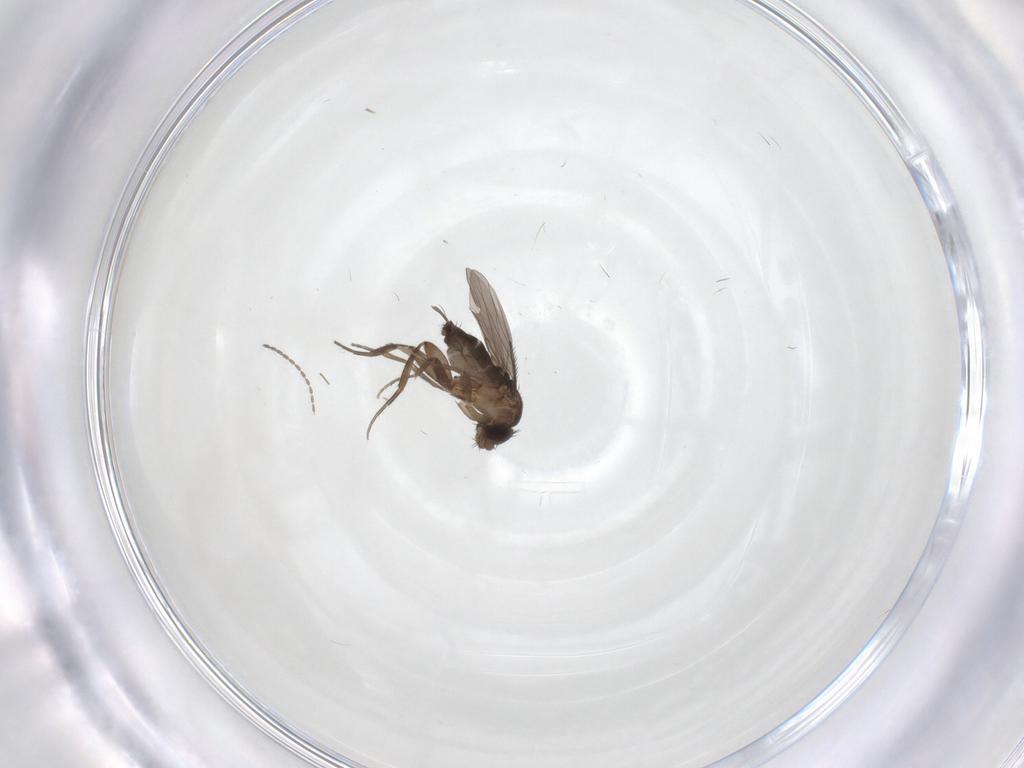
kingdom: Animalia
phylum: Arthropoda
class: Insecta
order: Diptera
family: Cecidomyiidae
